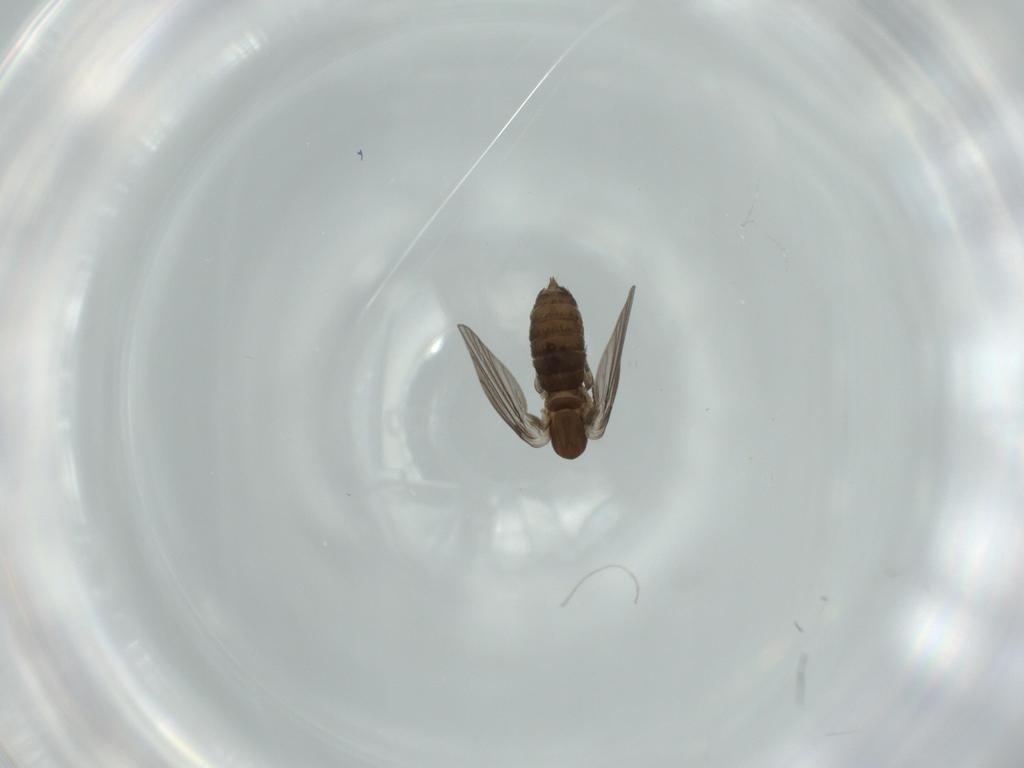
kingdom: Animalia
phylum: Arthropoda
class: Insecta
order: Diptera
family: Psychodidae
